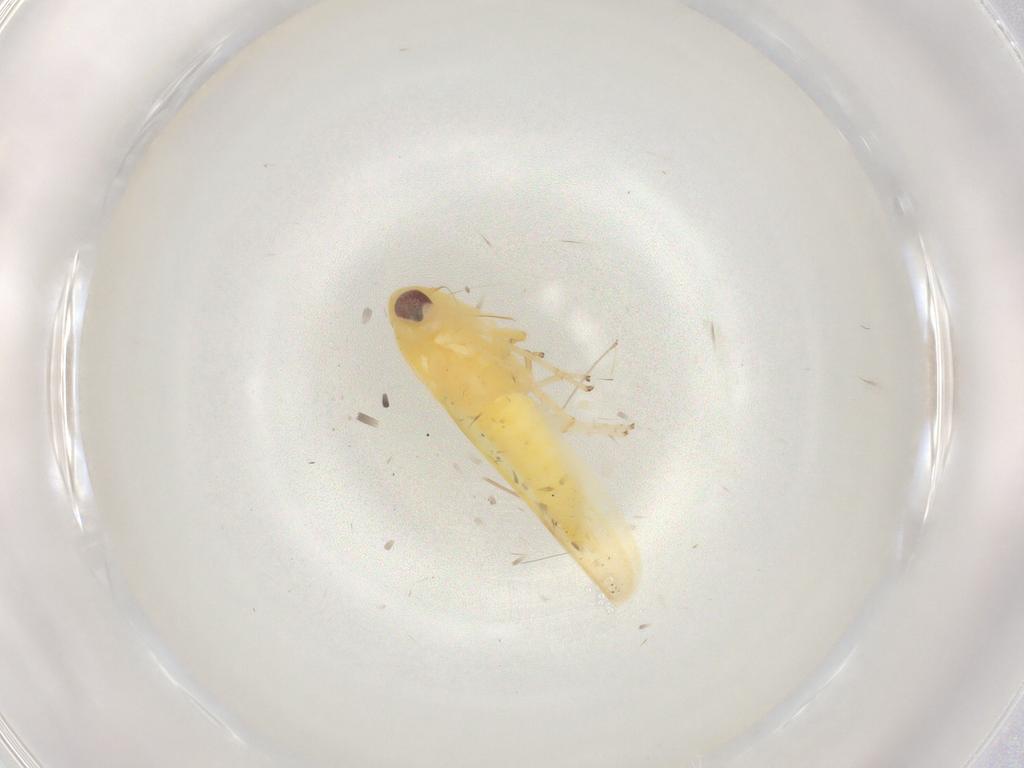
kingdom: Animalia
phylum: Arthropoda
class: Insecta
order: Hemiptera
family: Cicadellidae
